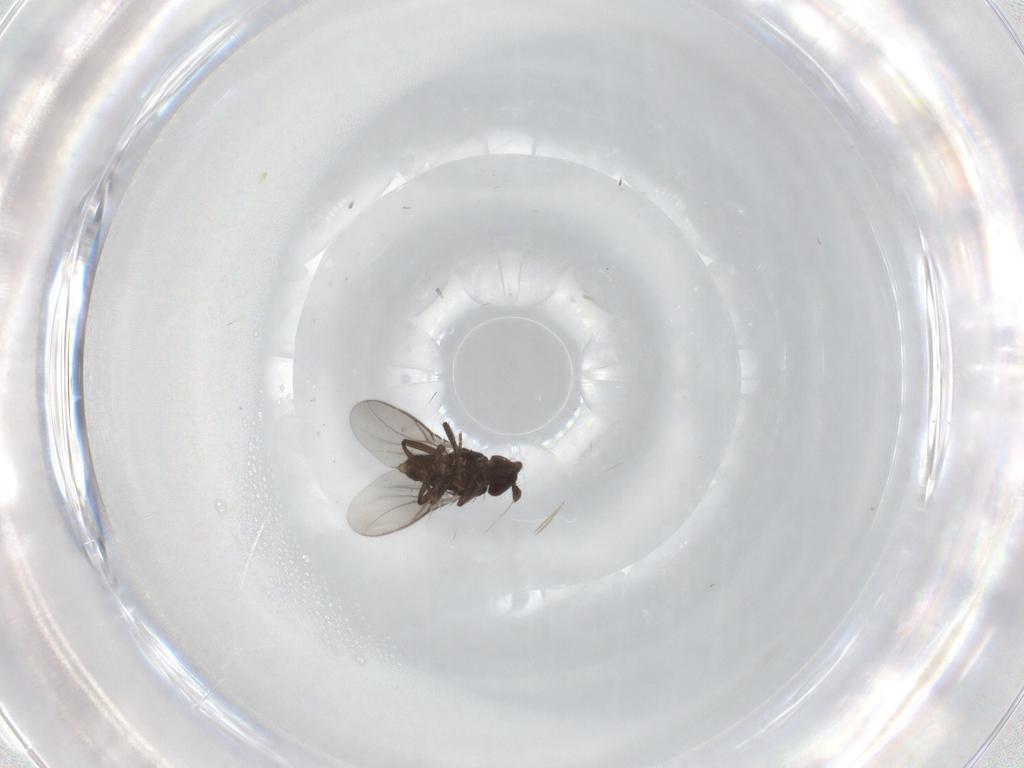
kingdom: Animalia
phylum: Arthropoda
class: Insecta
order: Diptera
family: Sphaeroceridae
